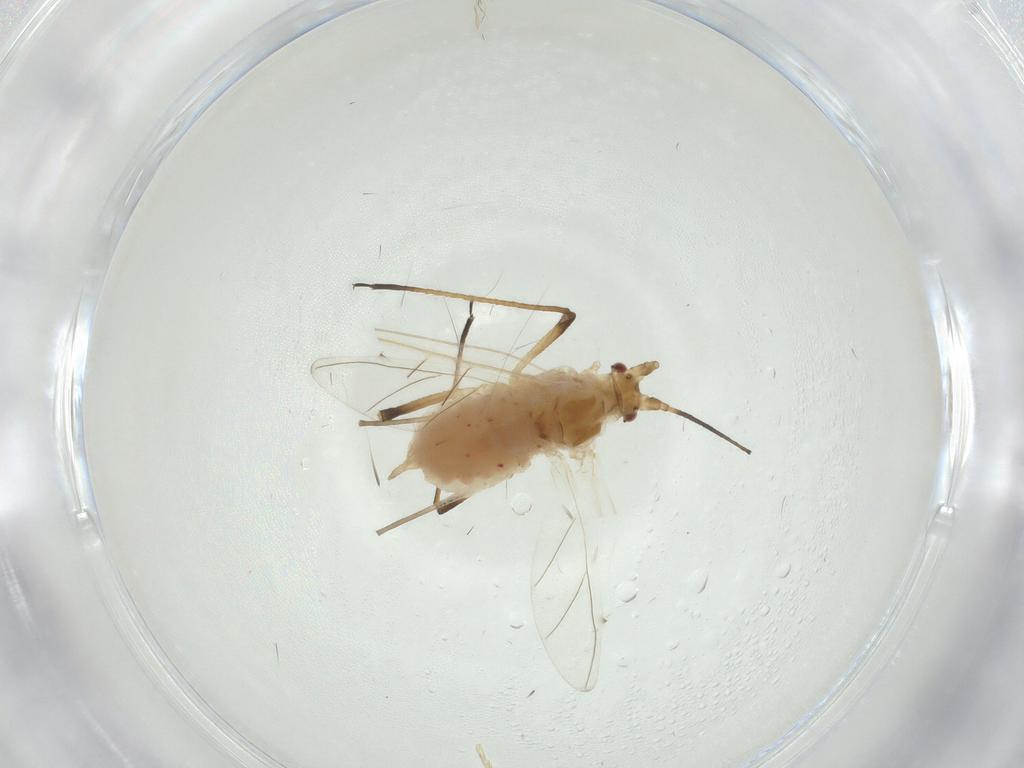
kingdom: Animalia
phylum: Arthropoda
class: Insecta
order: Hemiptera
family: Aphididae
